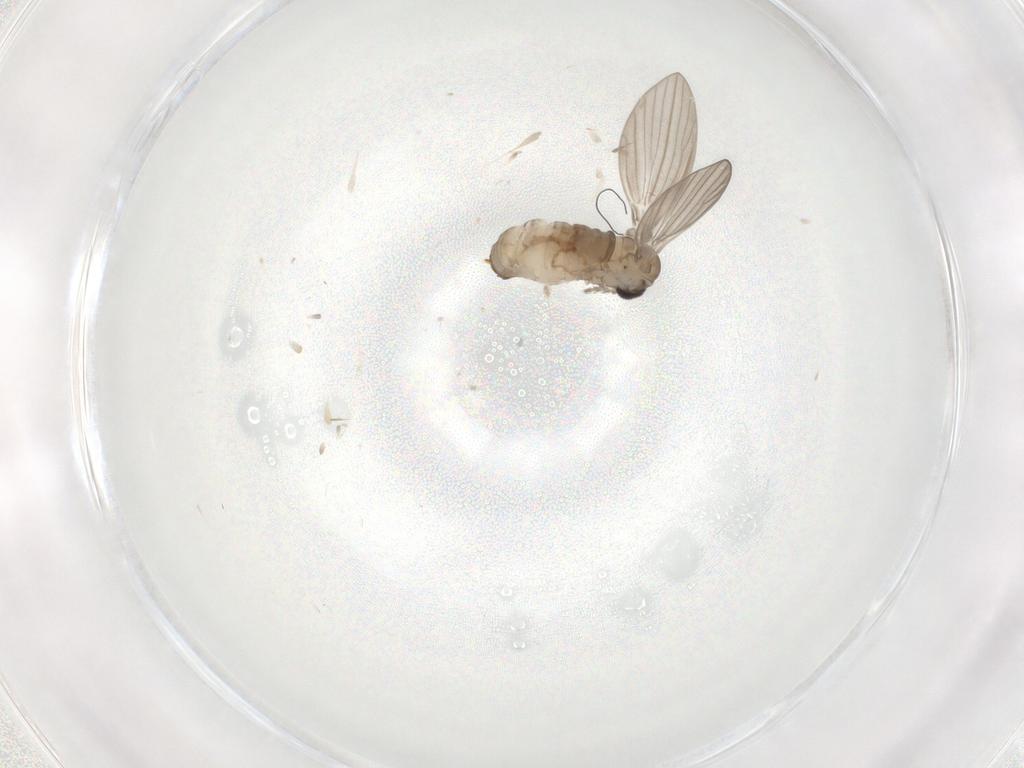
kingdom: Animalia
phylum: Arthropoda
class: Insecta
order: Diptera
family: Psychodidae
